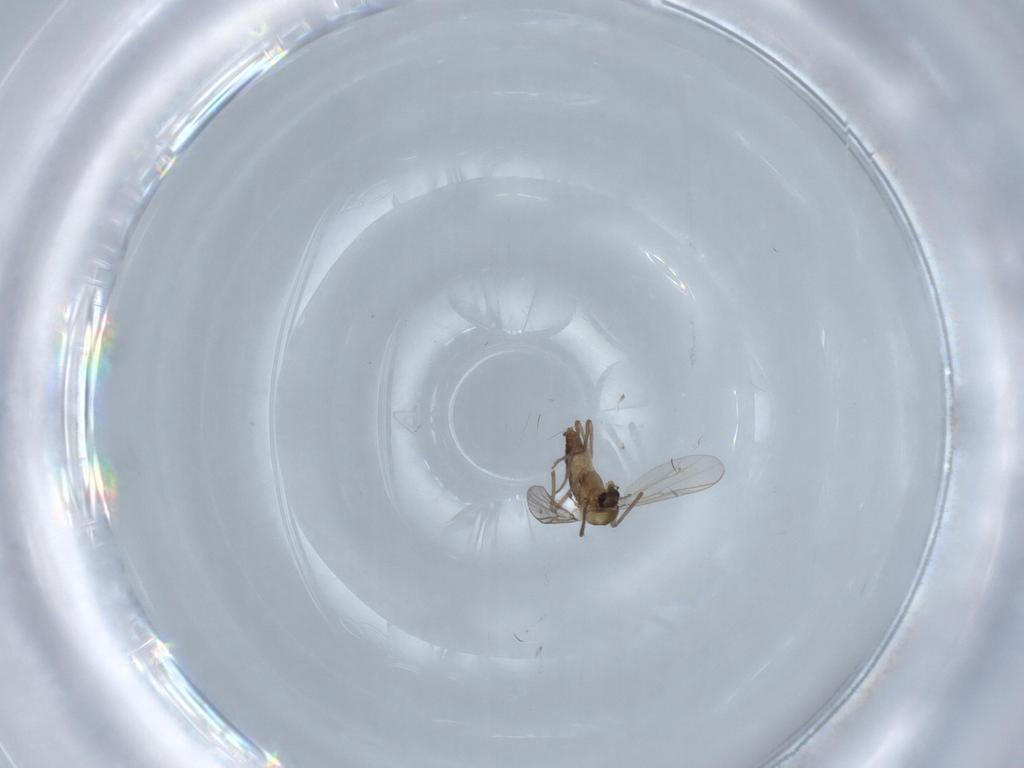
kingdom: Animalia
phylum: Arthropoda
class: Insecta
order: Diptera
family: Chironomidae
